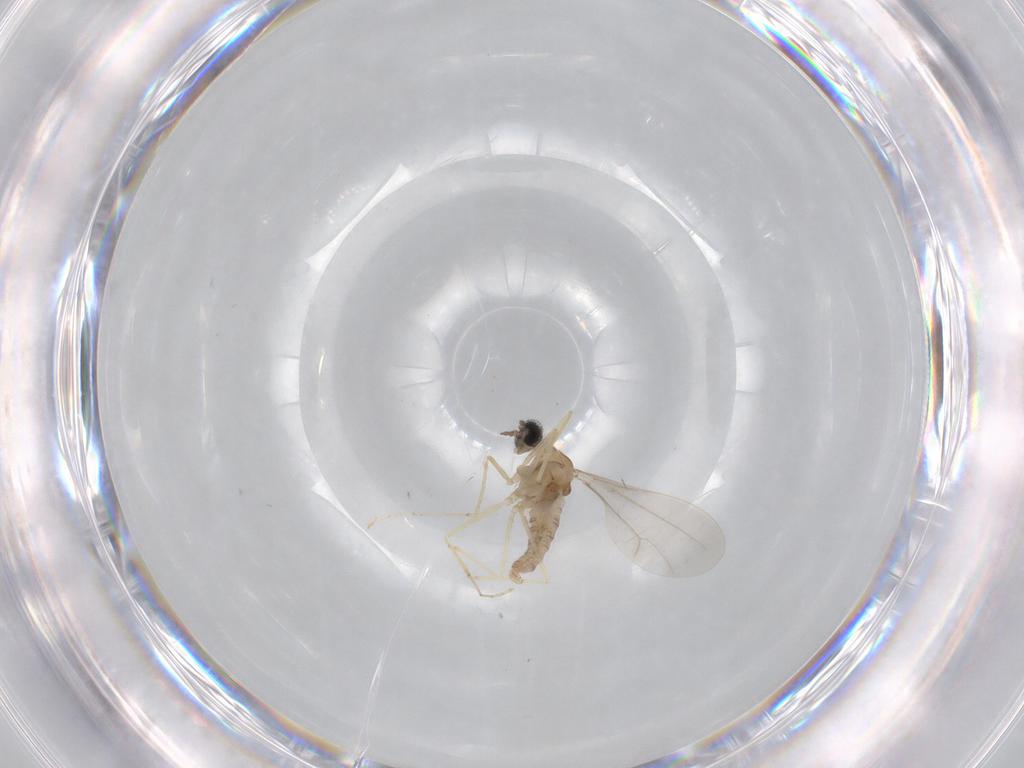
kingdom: Animalia
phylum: Arthropoda
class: Insecta
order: Diptera
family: Cecidomyiidae
